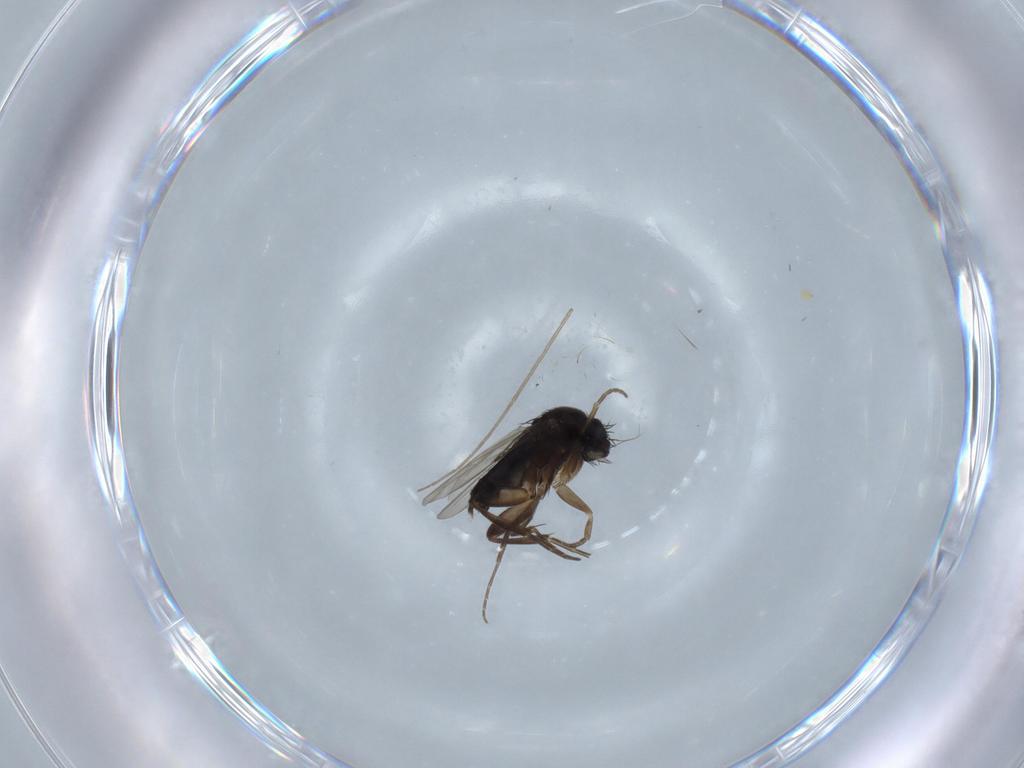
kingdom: Animalia
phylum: Arthropoda
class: Insecta
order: Diptera
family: Phoridae
